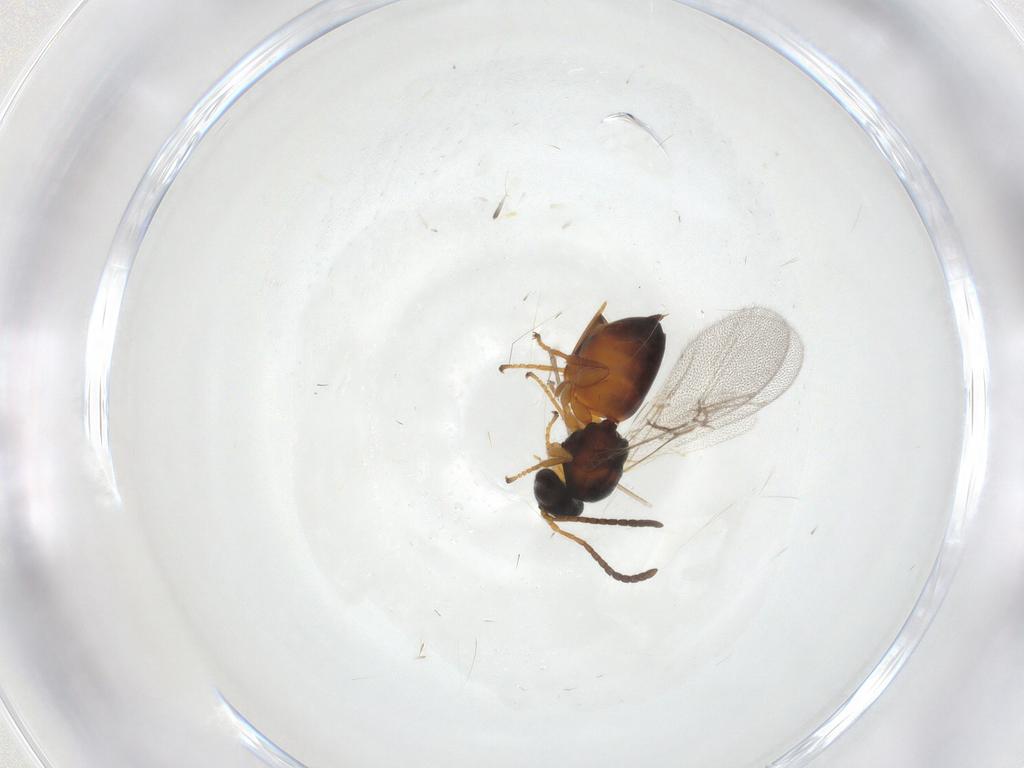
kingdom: Animalia
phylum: Arthropoda
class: Insecta
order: Hymenoptera
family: Cynipidae
